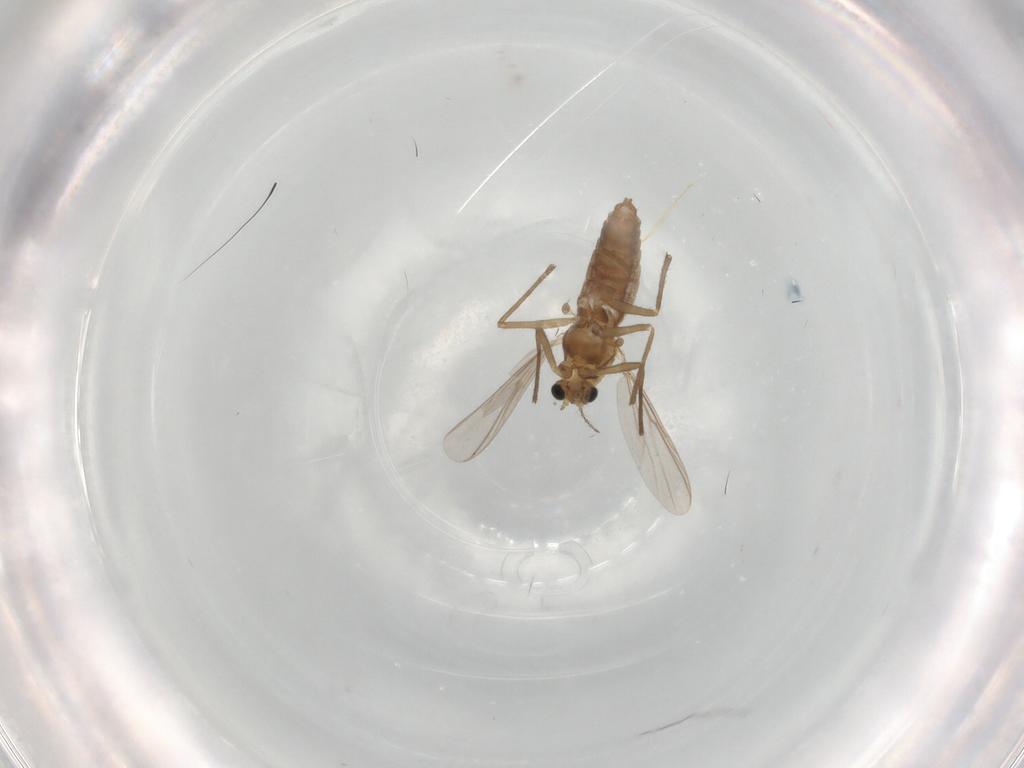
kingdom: Animalia
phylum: Arthropoda
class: Insecta
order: Diptera
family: Chironomidae
